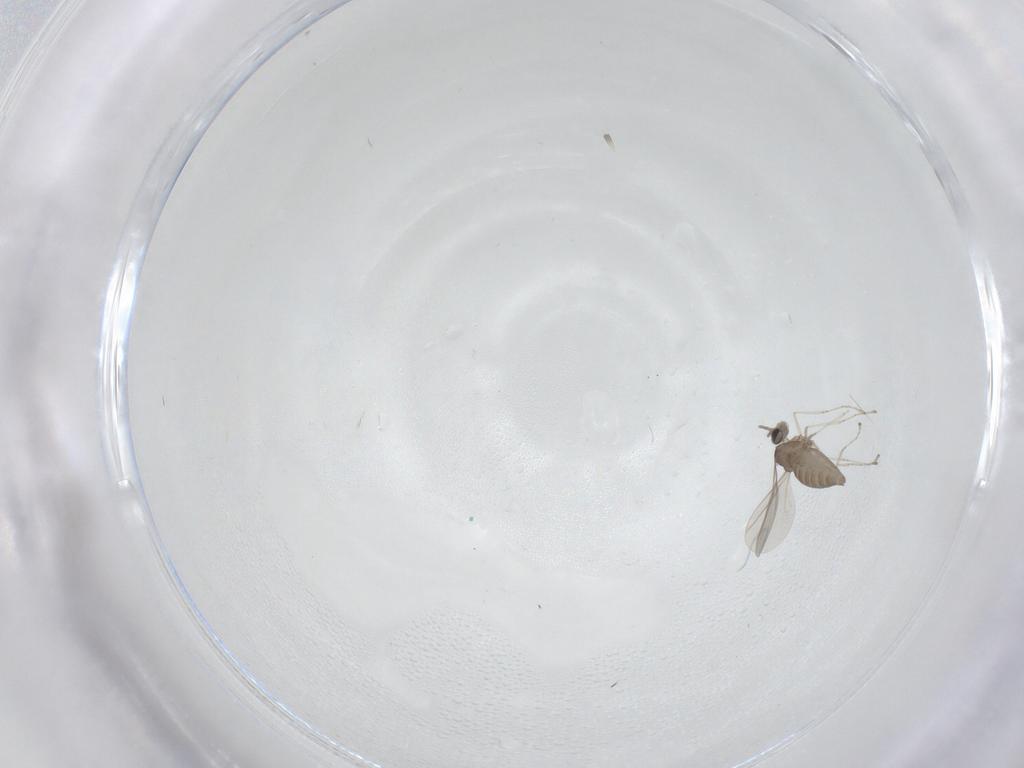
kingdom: Animalia
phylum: Arthropoda
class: Insecta
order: Diptera
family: Cecidomyiidae
